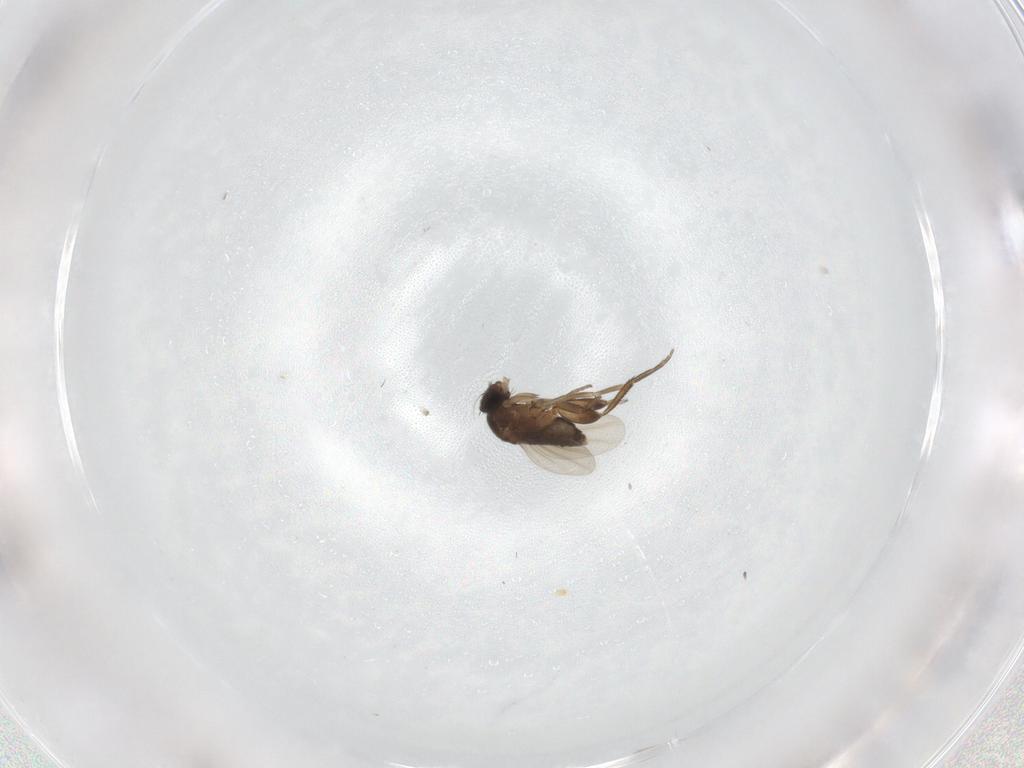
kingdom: Animalia
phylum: Arthropoda
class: Insecta
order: Diptera
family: Phoridae
